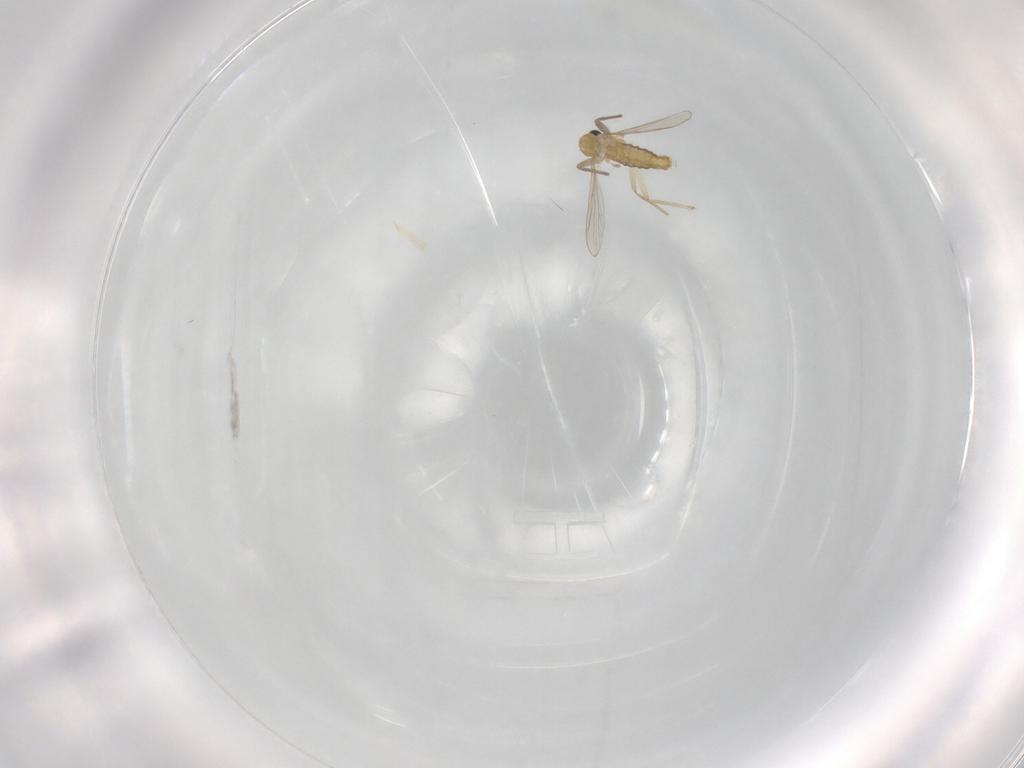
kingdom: Animalia
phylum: Arthropoda
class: Insecta
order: Diptera
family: Chironomidae
